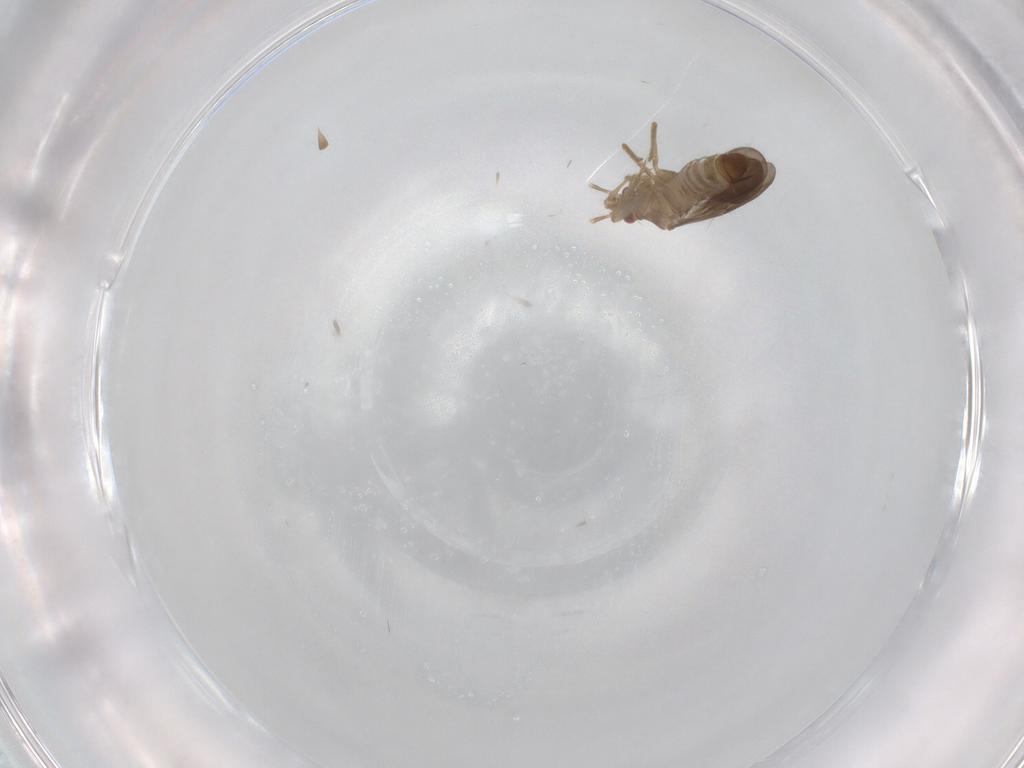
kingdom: Animalia
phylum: Arthropoda
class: Insecta
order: Hemiptera
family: Ceratocombidae
